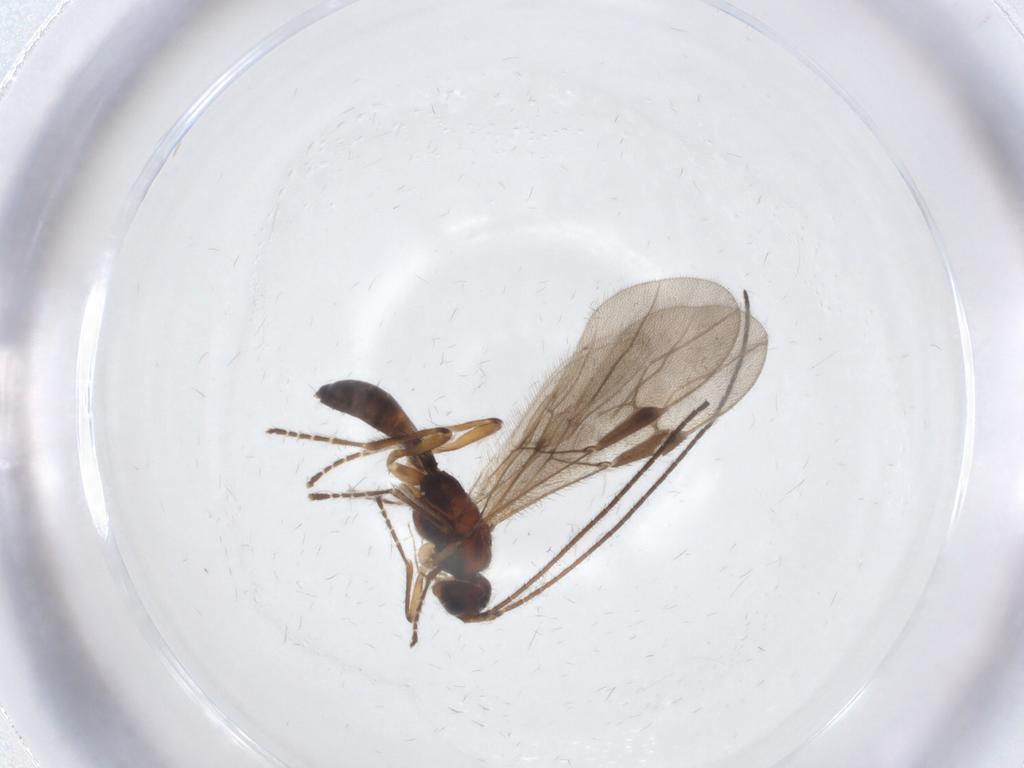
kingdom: Animalia
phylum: Arthropoda
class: Insecta
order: Hymenoptera
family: Braconidae
